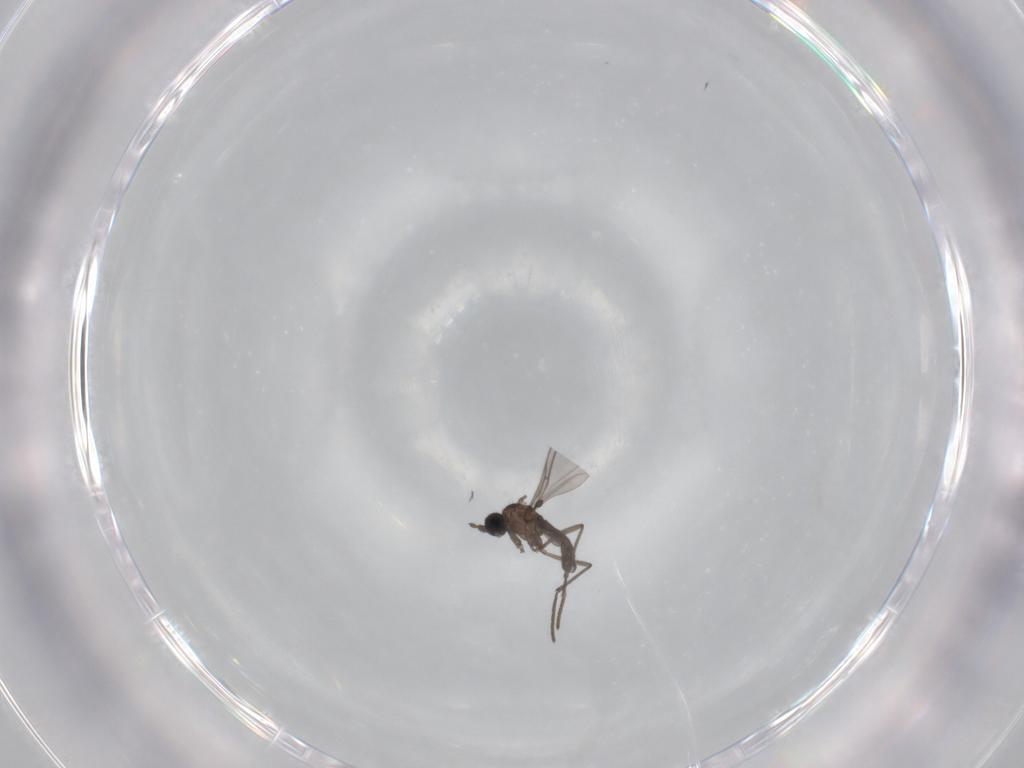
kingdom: Animalia
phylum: Arthropoda
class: Insecta
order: Diptera
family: Sciaridae
